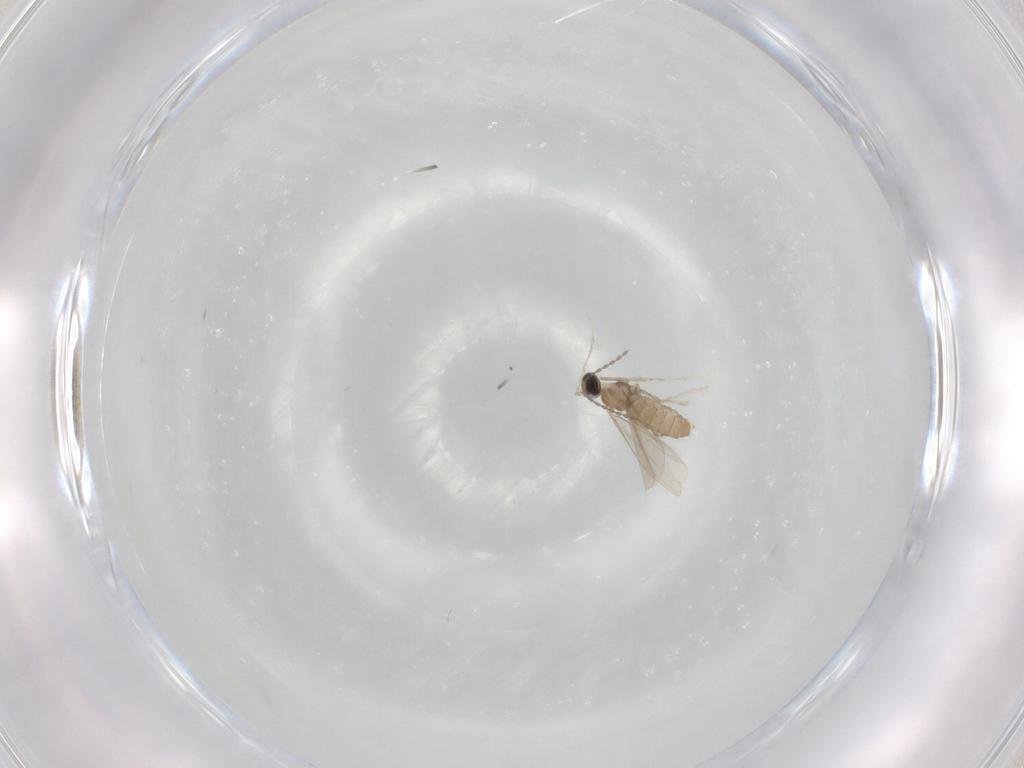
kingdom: Animalia
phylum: Arthropoda
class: Insecta
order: Diptera
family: Cecidomyiidae
